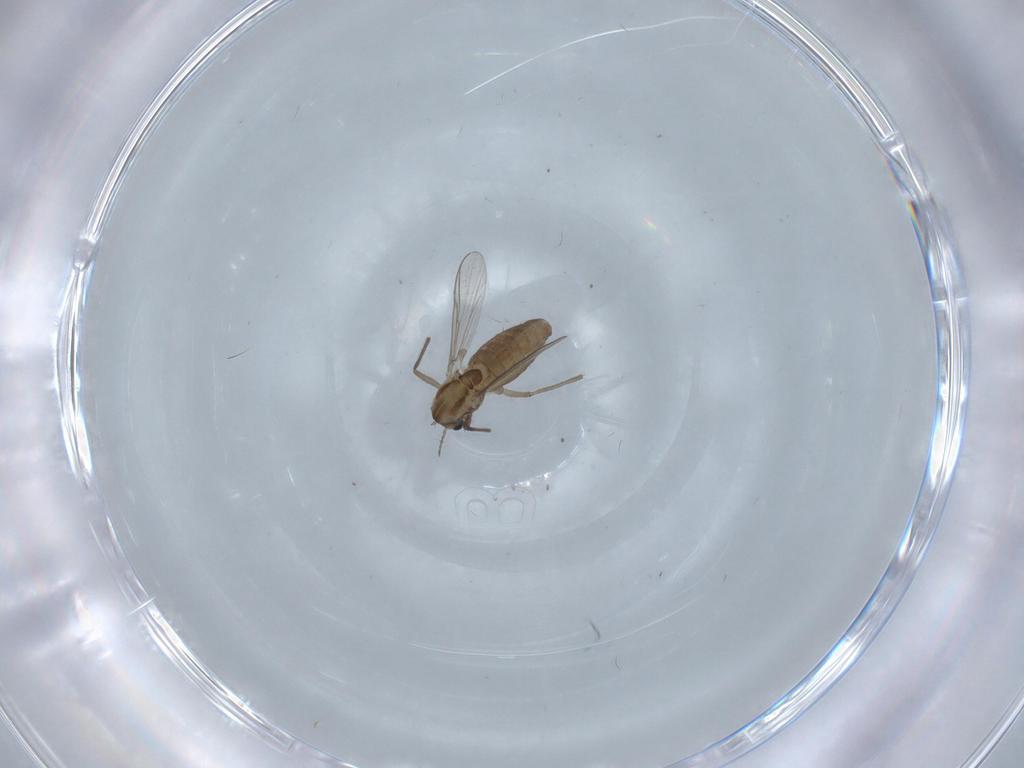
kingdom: Animalia
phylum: Arthropoda
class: Insecta
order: Diptera
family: Chironomidae
